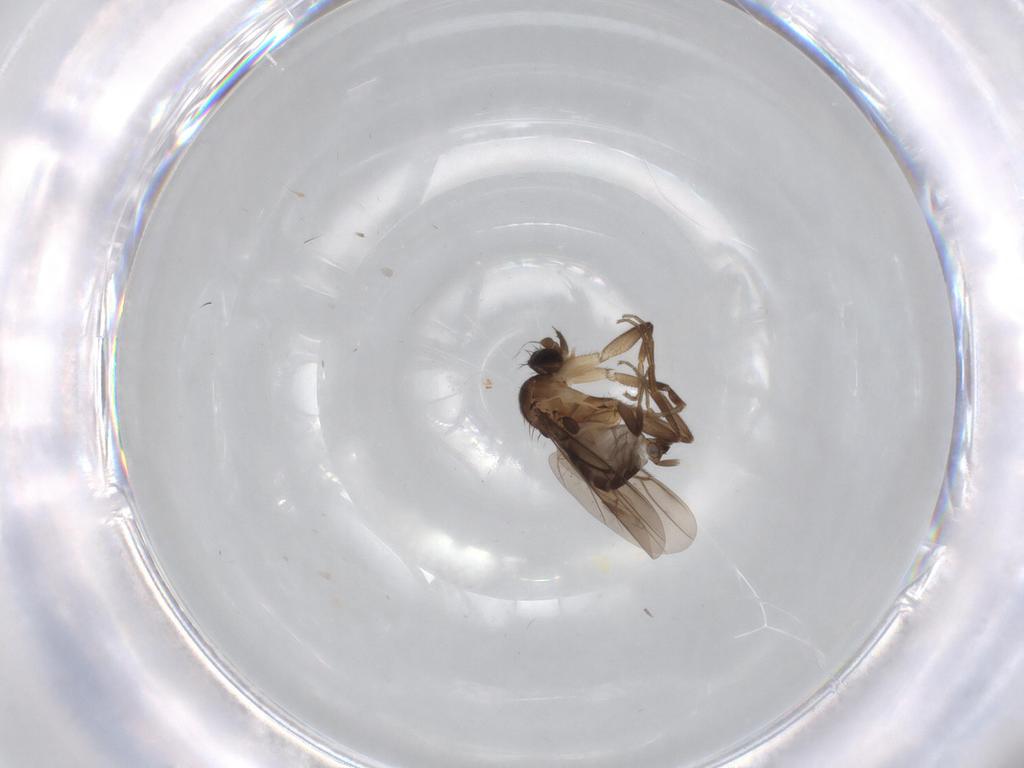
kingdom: Animalia
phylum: Arthropoda
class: Insecta
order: Diptera
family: Phoridae
